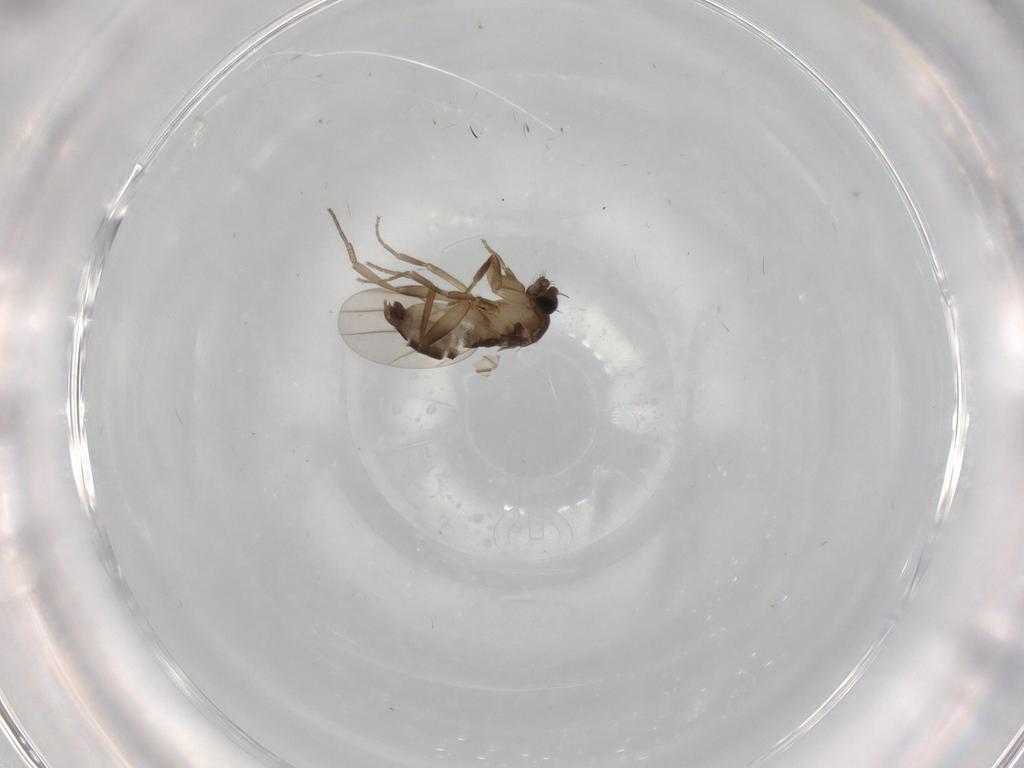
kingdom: Animalia
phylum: Arthropoda
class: Insecta
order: Diptera
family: Phoridae
